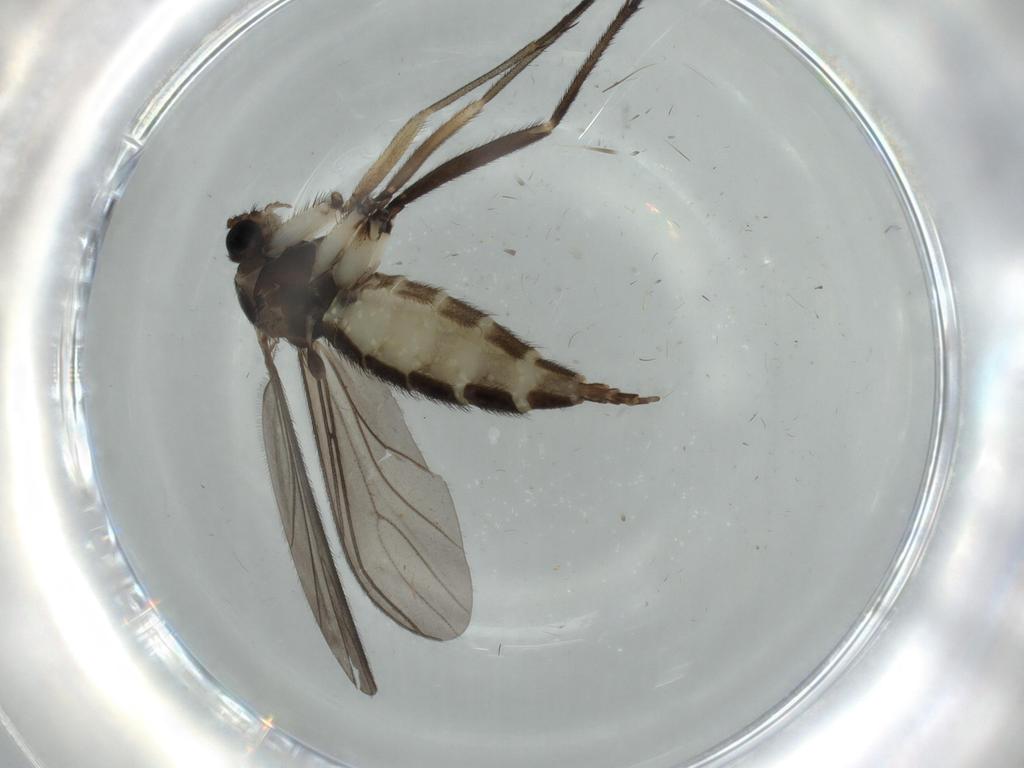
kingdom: Animalia
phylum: Arthropoda
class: Insecta
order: Diptera
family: Sciaridae
